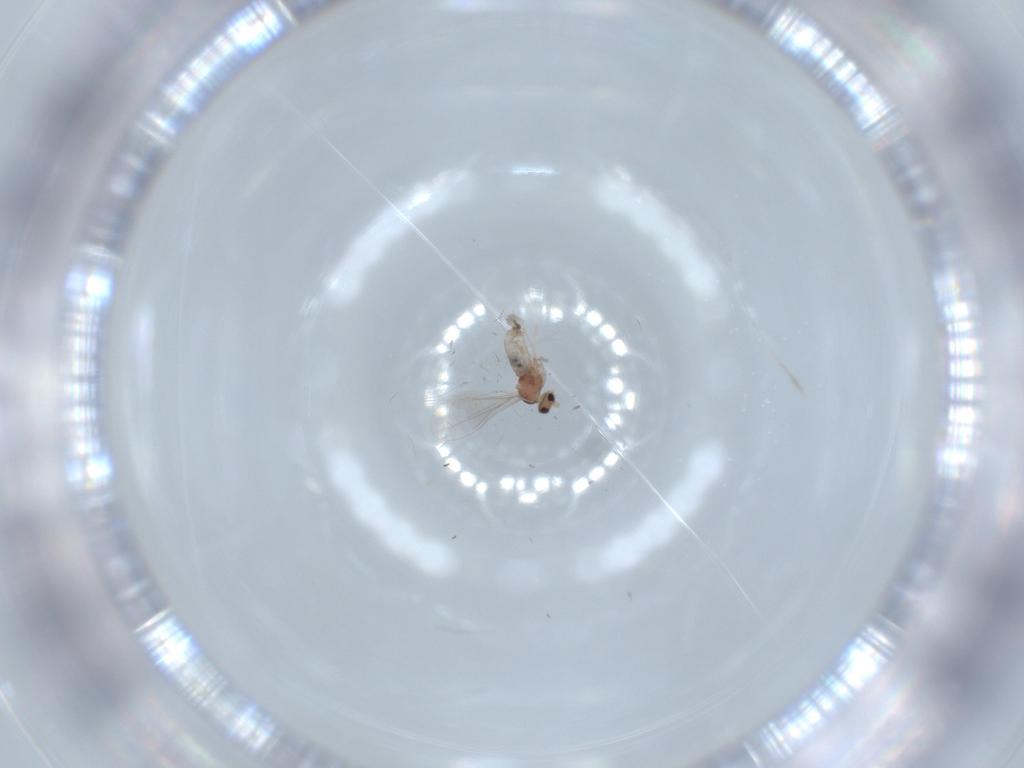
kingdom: Animalia
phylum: Arthropoda
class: Insecta
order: Diptera
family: Cecidomyiidae
